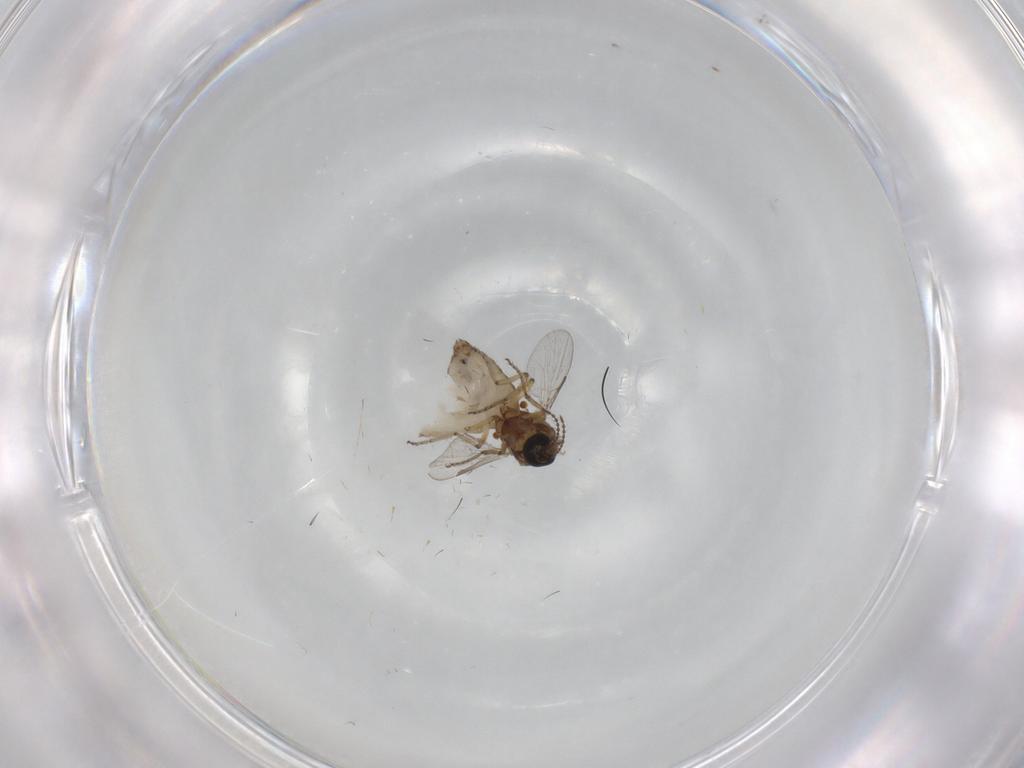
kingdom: Animalia
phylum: Arthropoda
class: Insecta
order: Diptera
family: Ceratopogonidae
